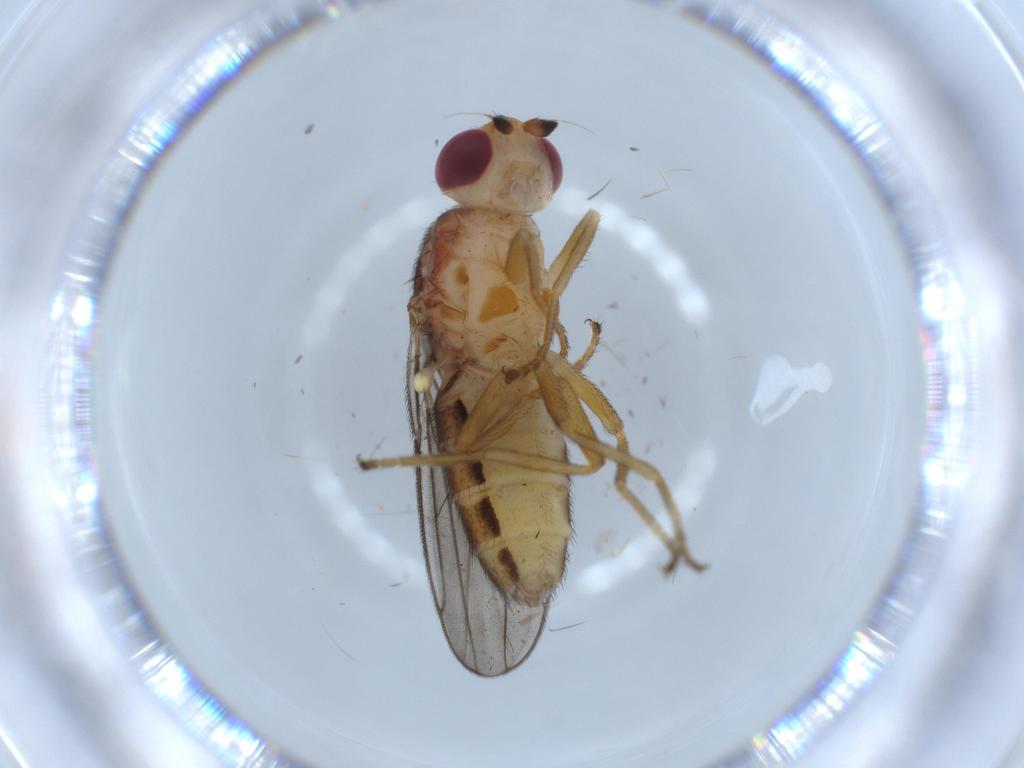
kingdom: Animalia
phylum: Arthropoda
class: Insecta
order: Diptera
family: Chloropidae
